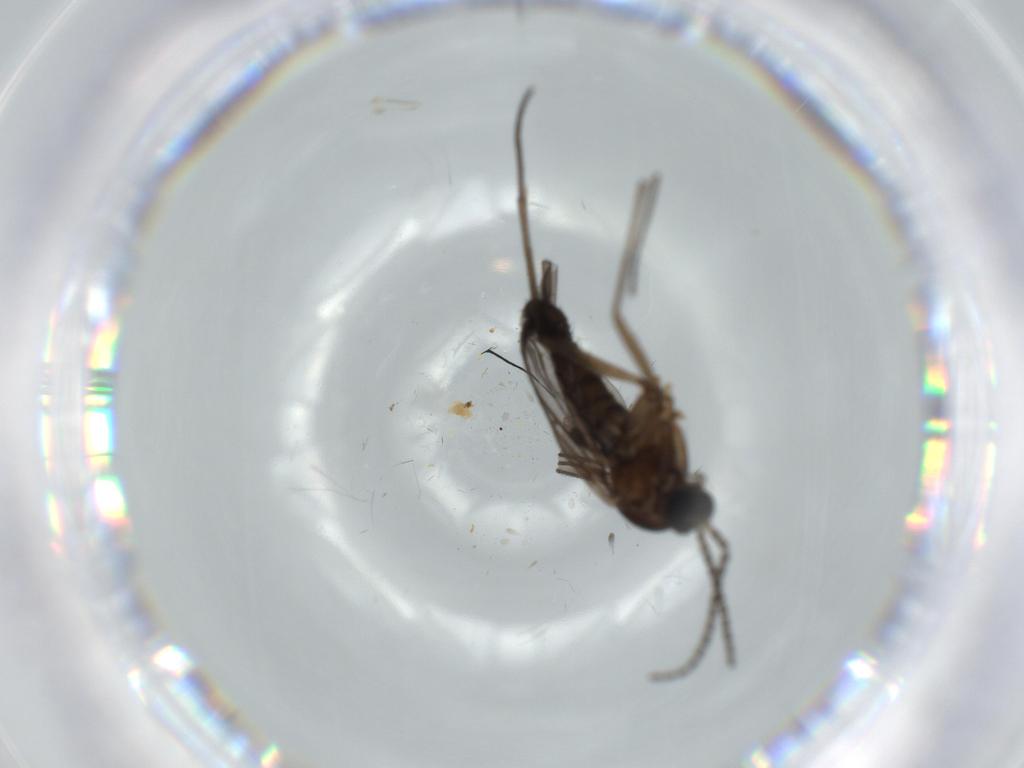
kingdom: Animalia
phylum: Arthropoda
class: Insecta
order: Diptera
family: Sciaridae
